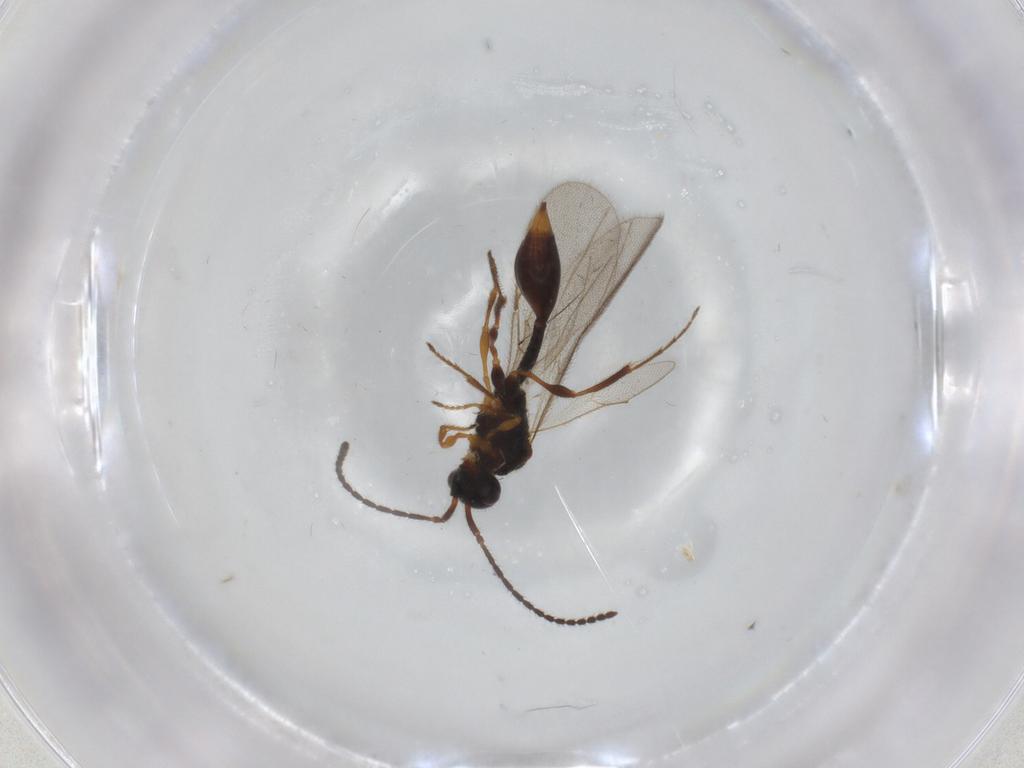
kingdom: Animalia
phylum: Arthropoda
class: Insecta
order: Hymenoptera
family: Diapriidae
